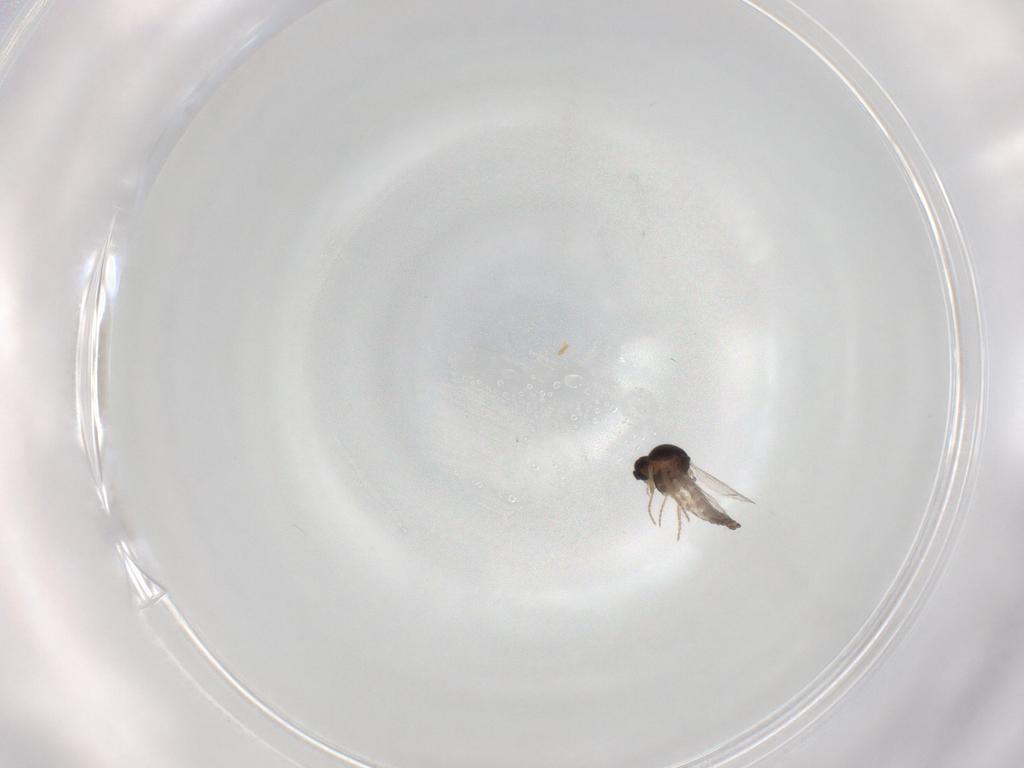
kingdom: Animalia
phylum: Arthropoda
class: Insecta
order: Diptera
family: Ceratopogonidae
